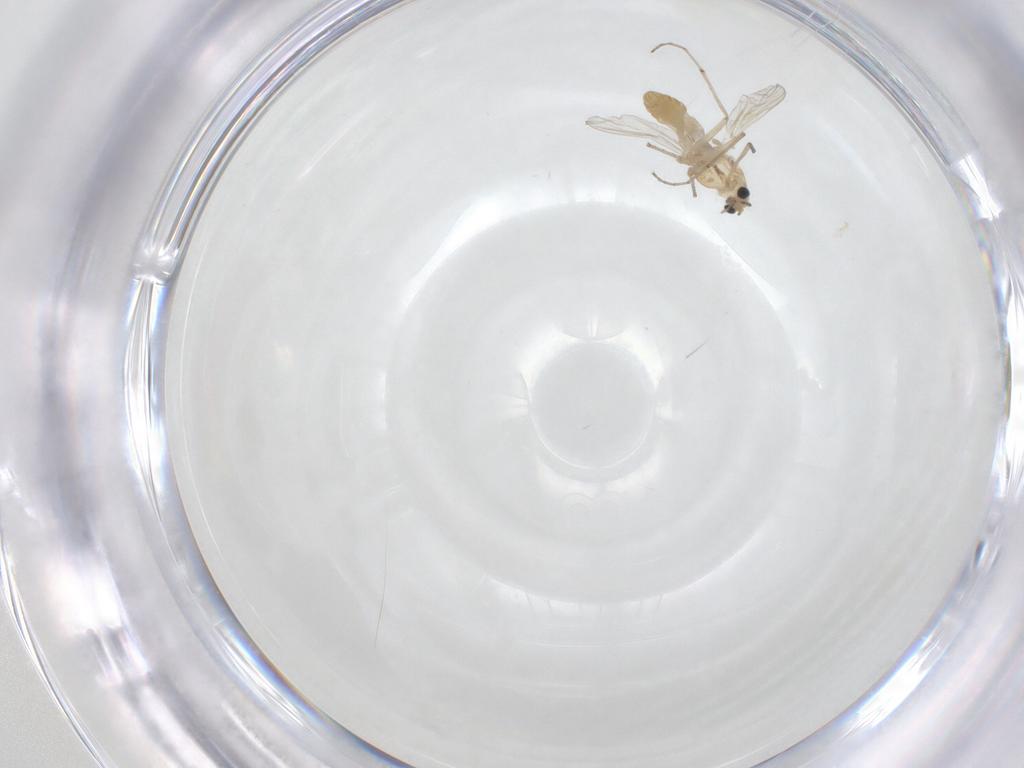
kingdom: Animalia
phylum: Arthropoda
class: Insecta
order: Diptera
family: Chironomidae
